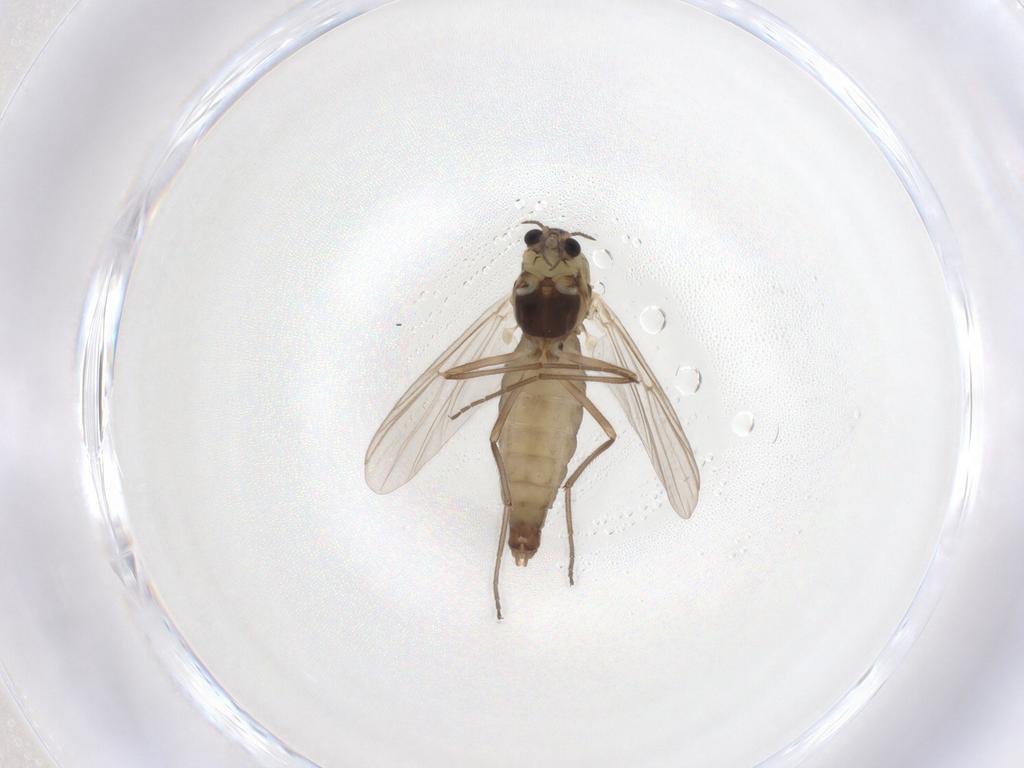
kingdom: Animalia
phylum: Arthropoda
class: Insecta
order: Diptera
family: Chironomidae
